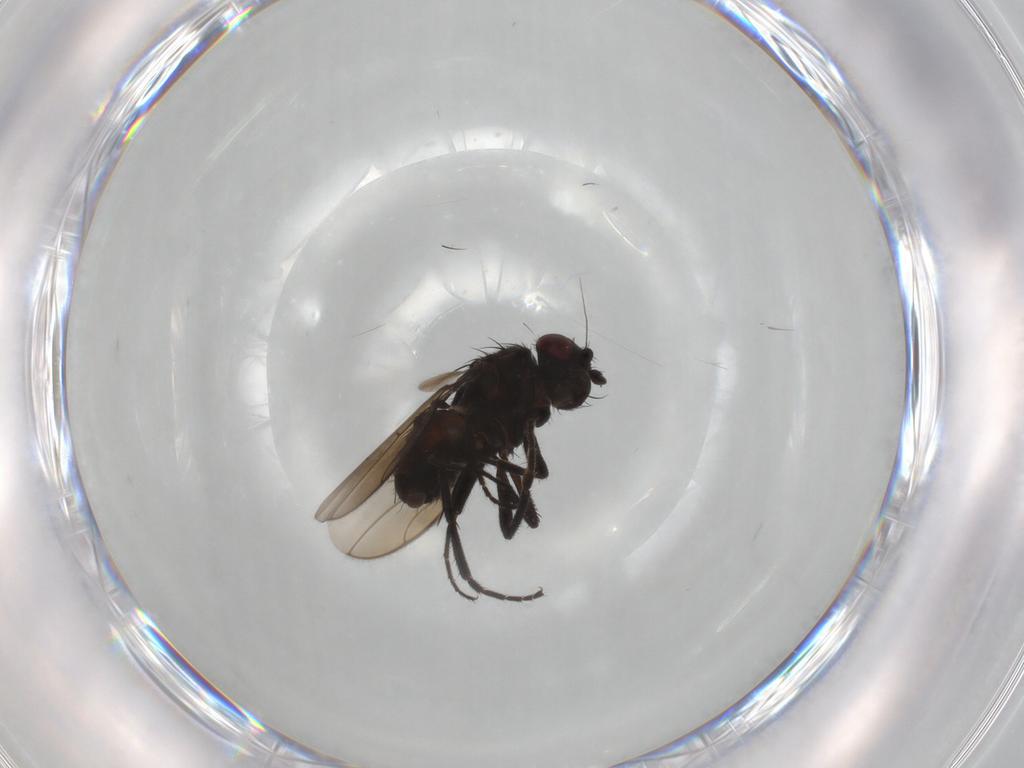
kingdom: Animalia
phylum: Arthropoda
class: Insecta
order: Diptera
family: Sphaeroceridae
